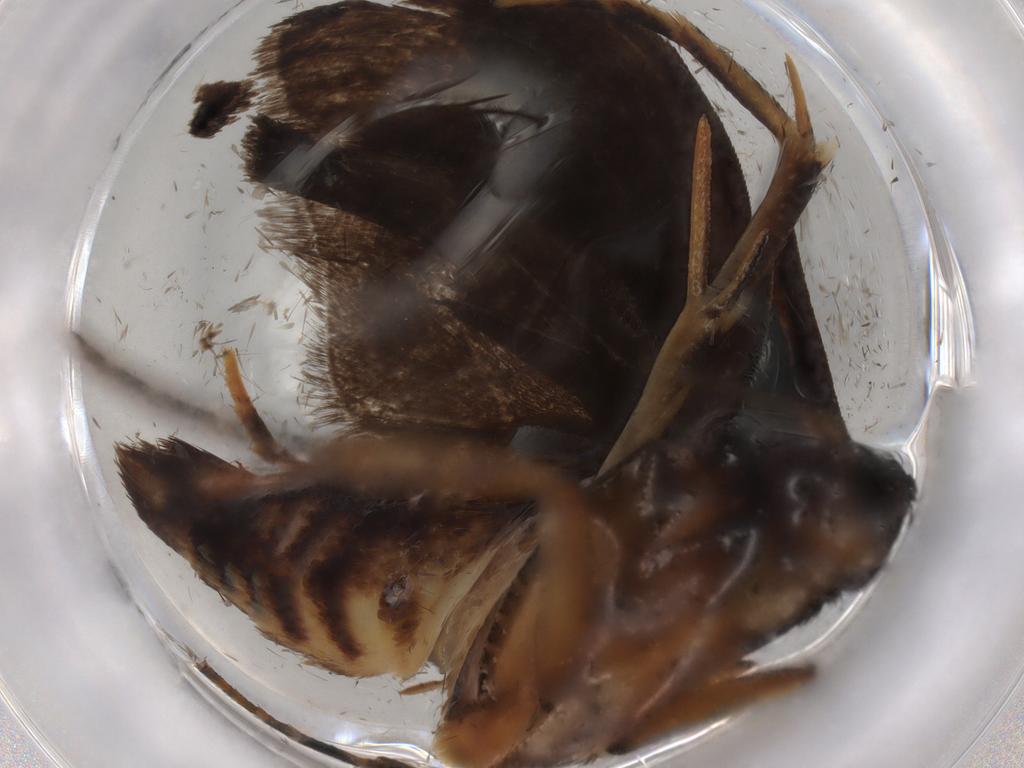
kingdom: Animalia
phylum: Arthropoda
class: Insecta
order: Lepidoptera
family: Gelechiidae
